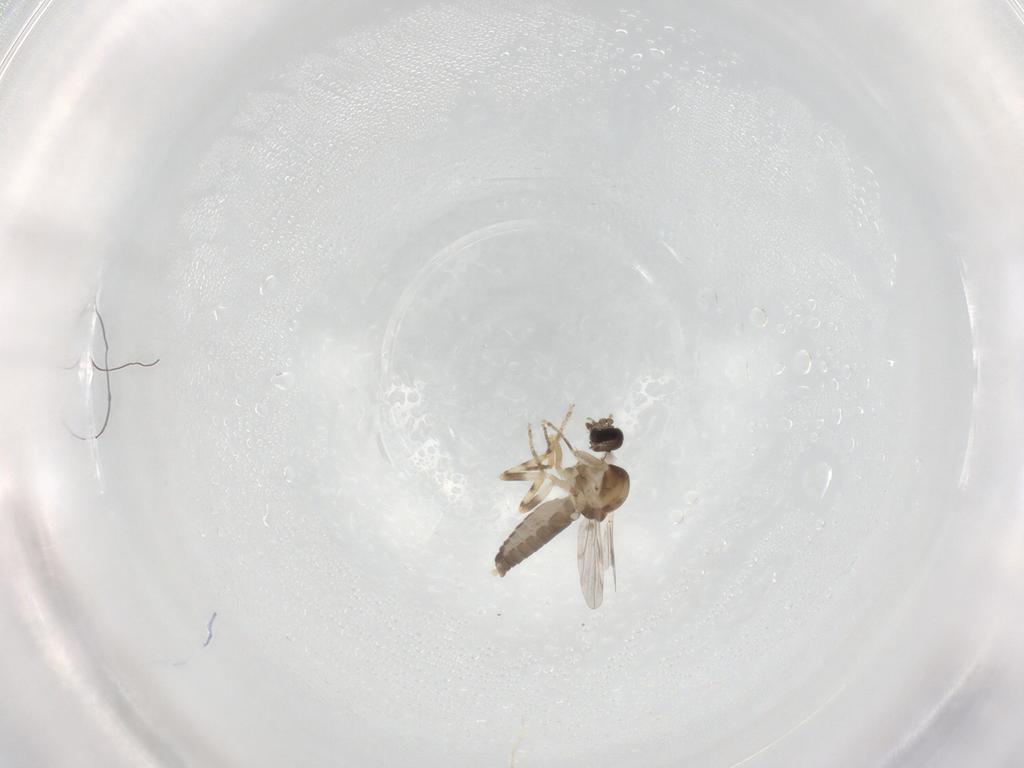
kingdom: Animalia
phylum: Arthropoda
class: Insecta
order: Diptera
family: Ceratopogonidae
